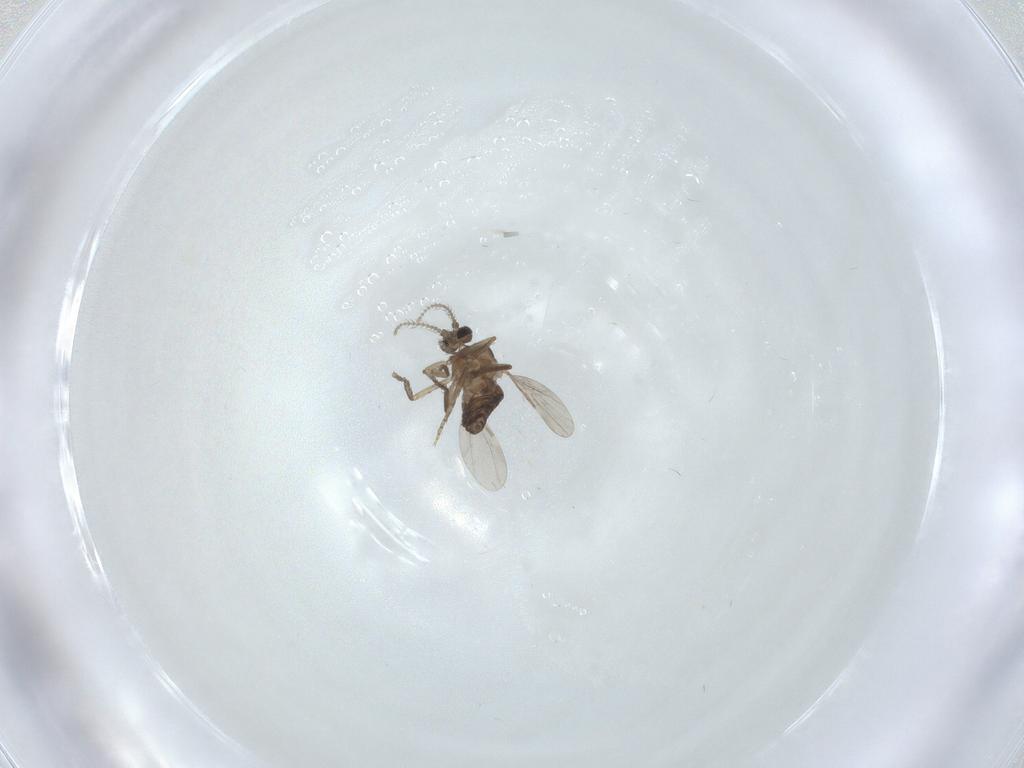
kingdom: Animalia
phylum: Arthropoda
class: Insecta
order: Diptera
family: Ceratopogonidae
